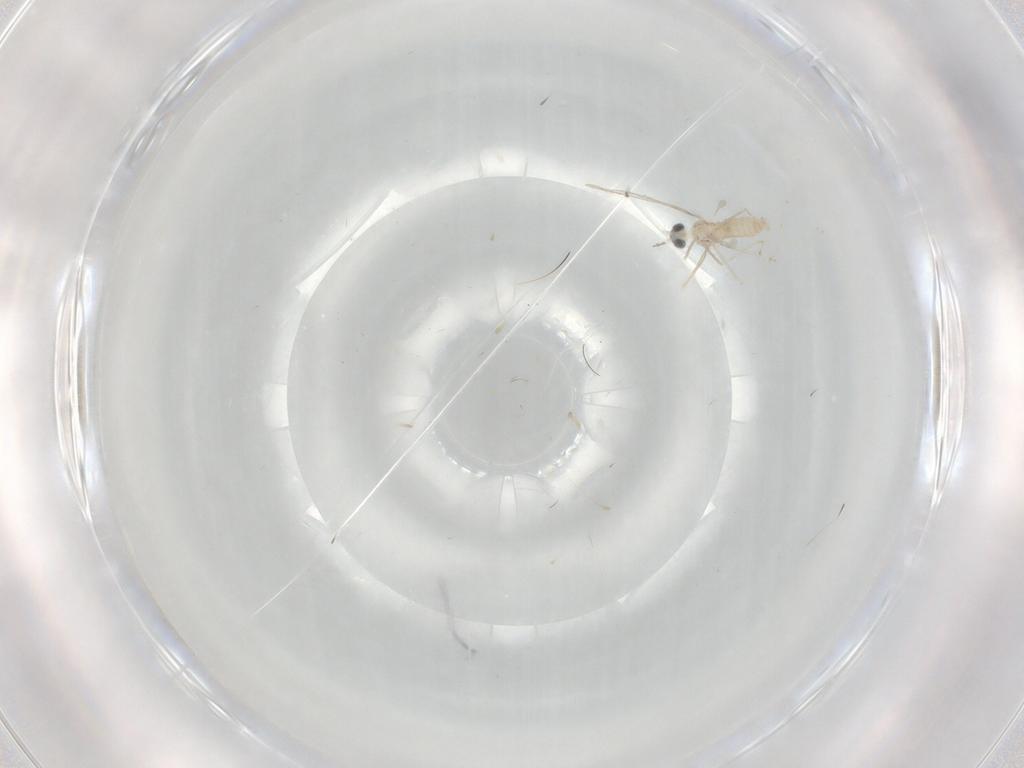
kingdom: Animalia
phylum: Arthropoda
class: Insecta
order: Diptera
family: Cecidomyiidae
